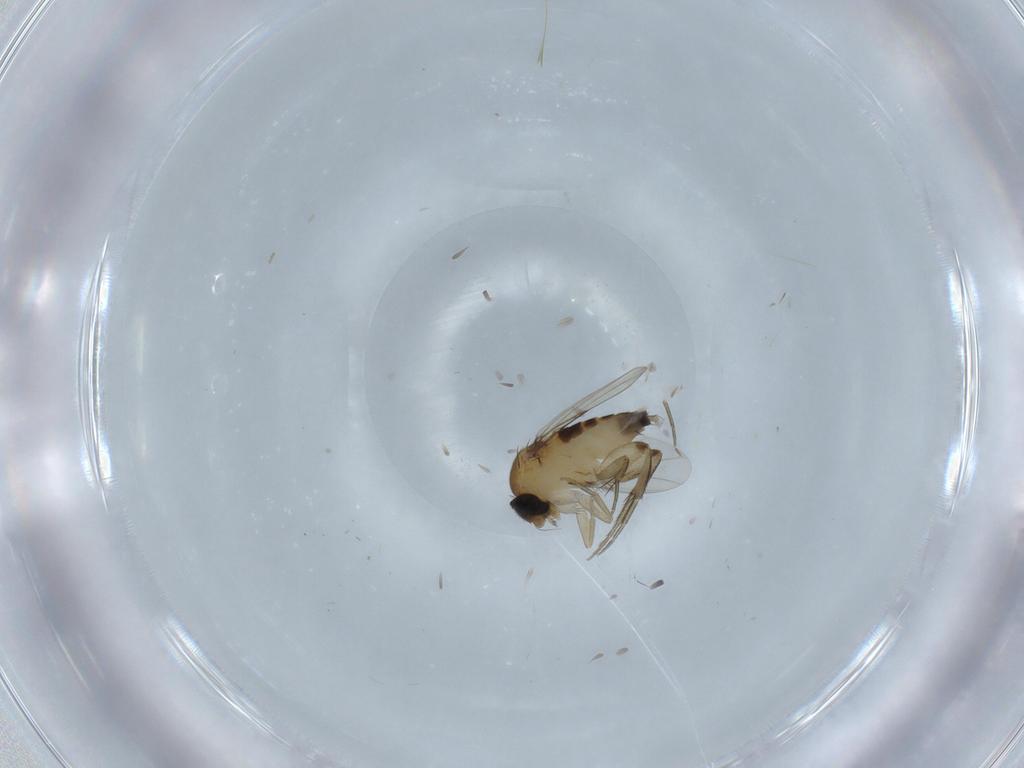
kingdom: Animalia
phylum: Arthropoda
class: Insecta
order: Diptera
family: Phoridae
